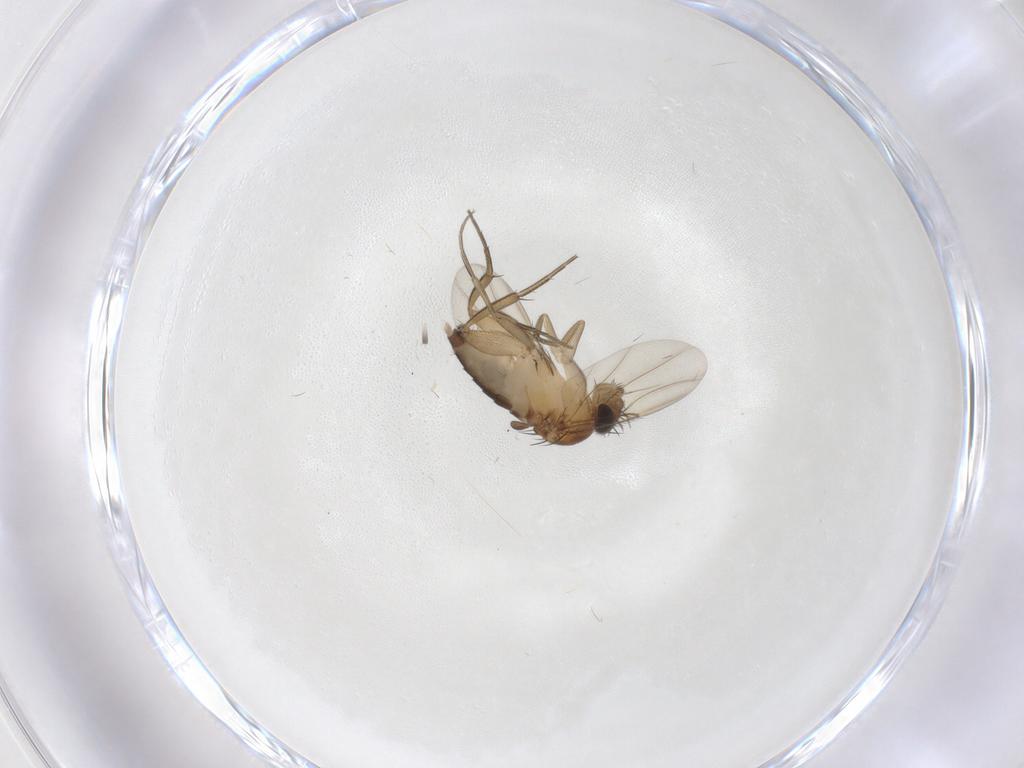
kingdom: Animalia
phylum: Arthropoda
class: Insecta
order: Diptera
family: Phoridae
